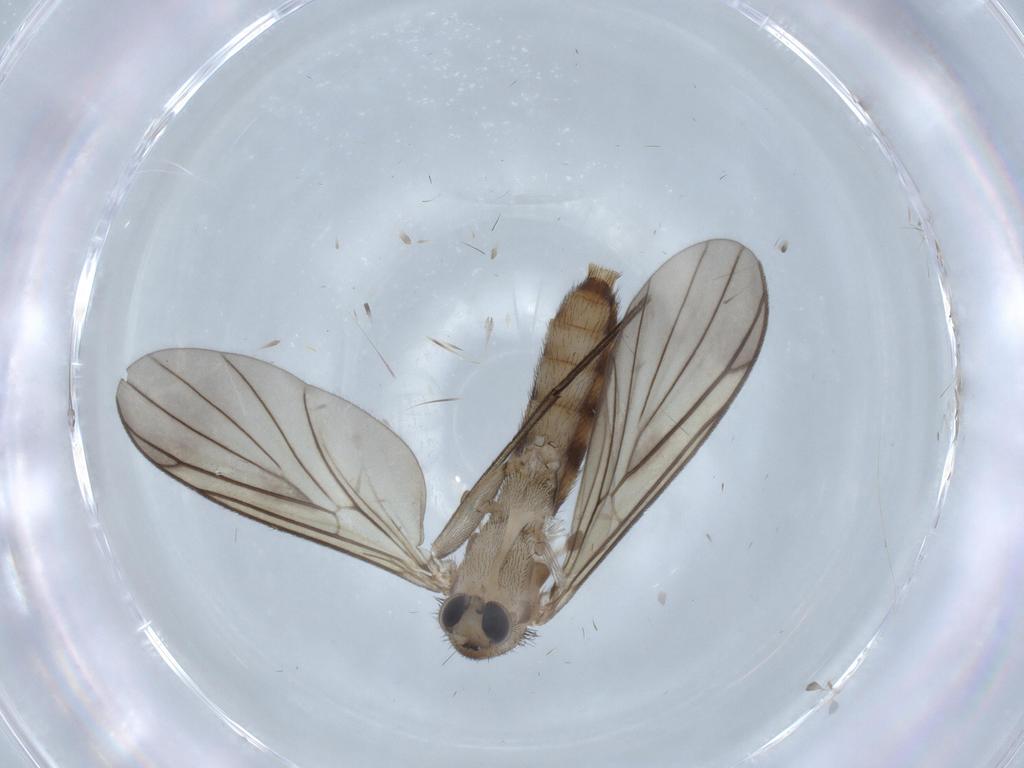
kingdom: Animalia
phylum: Arthropoda
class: Insecta
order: Diptera
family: Mycetophilidae
